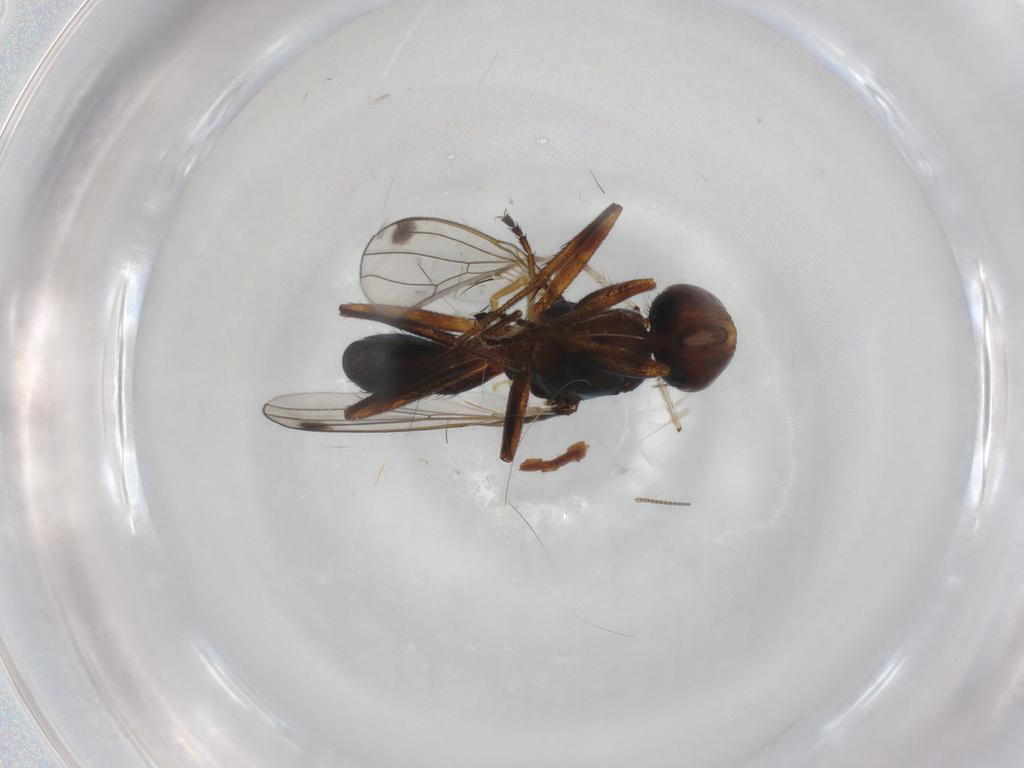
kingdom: Animalia
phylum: Arthropoda
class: Insecta
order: Diptera
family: Sepsidae
